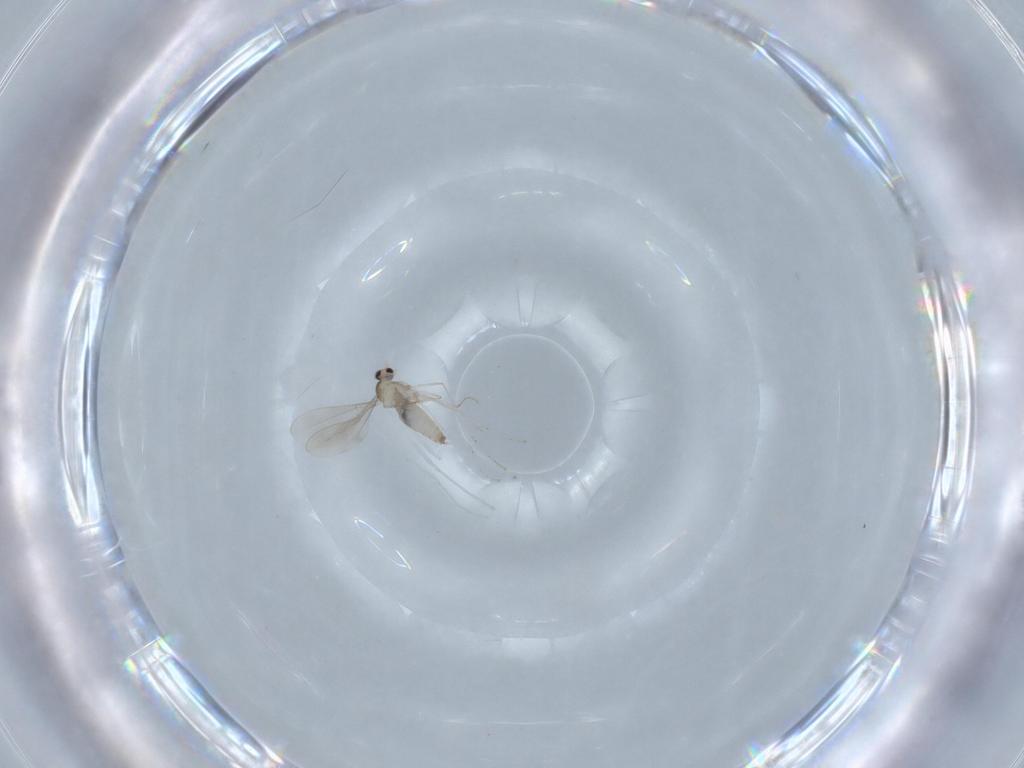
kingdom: Animalia
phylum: Arthropoda
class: Insecta
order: Diptera
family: Cecidomyiidae
